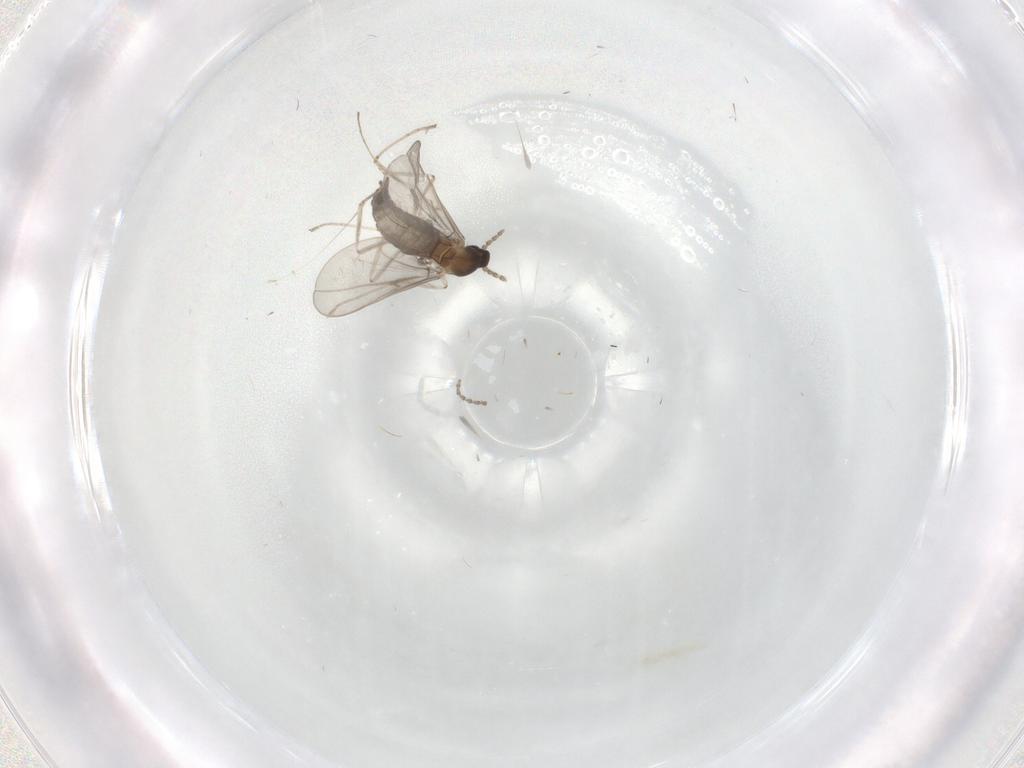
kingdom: Animalia
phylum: Arthropoda
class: Insecta
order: Diptera
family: Cecidomyiidae
